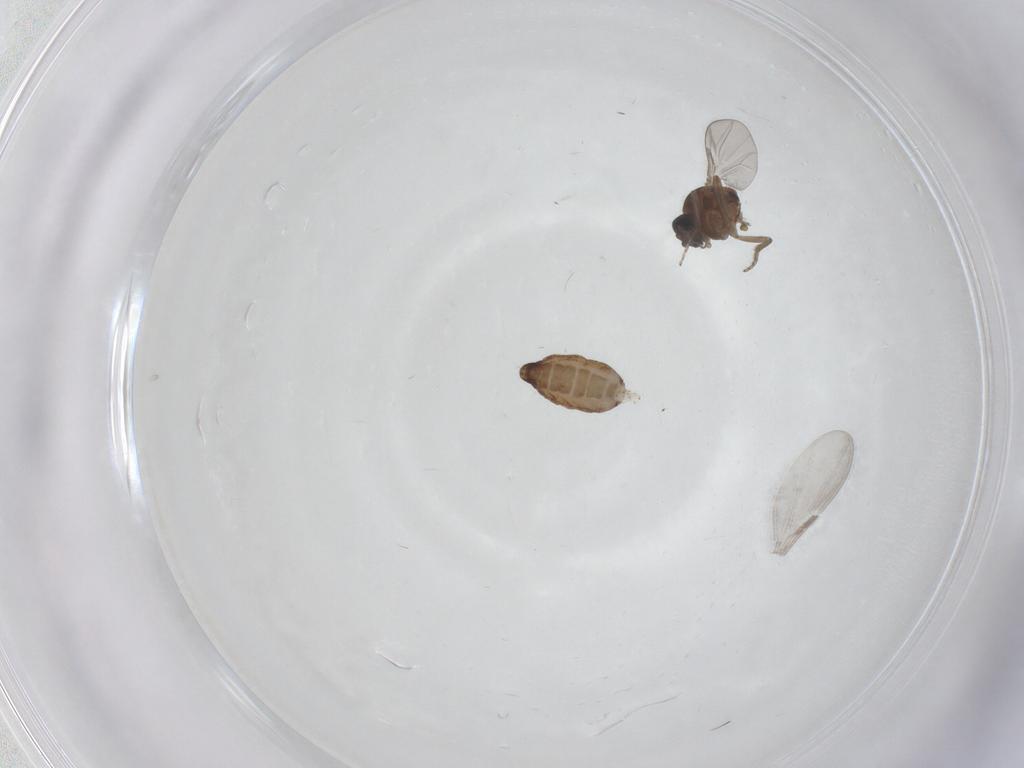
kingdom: Animalia
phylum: Arthropoda
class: Insecta
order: Diptera
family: Ceratopogonidae
